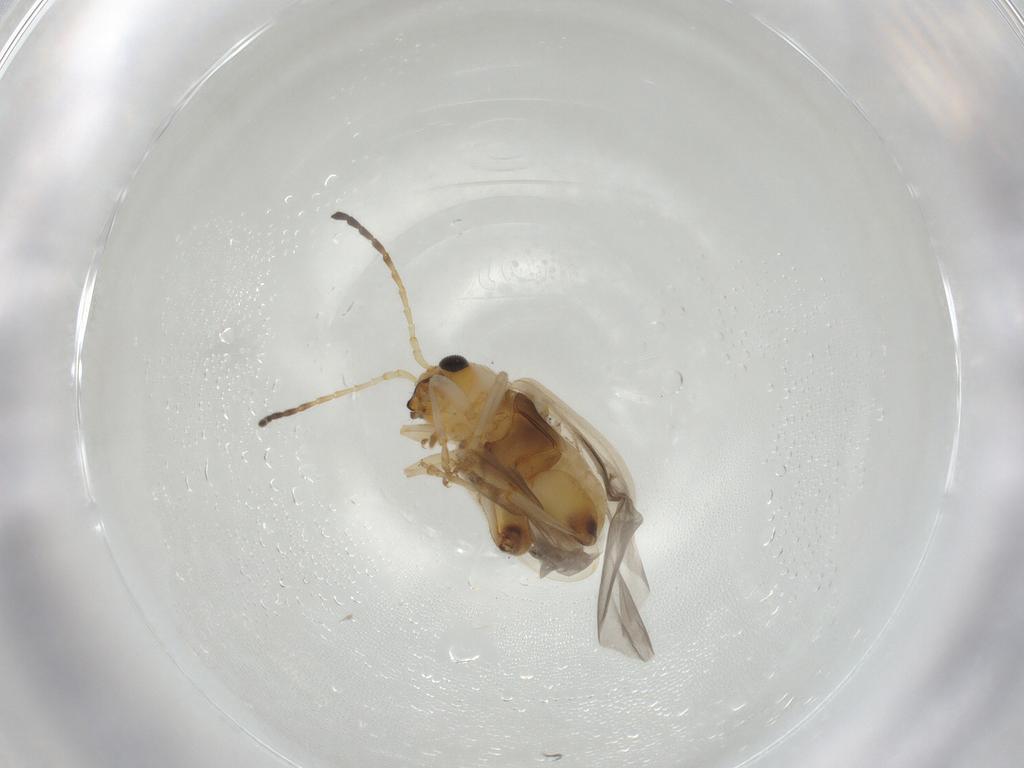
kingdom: Animalia
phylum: Arthropoda
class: Insecta
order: Coleoptera
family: Chrysomelidae
